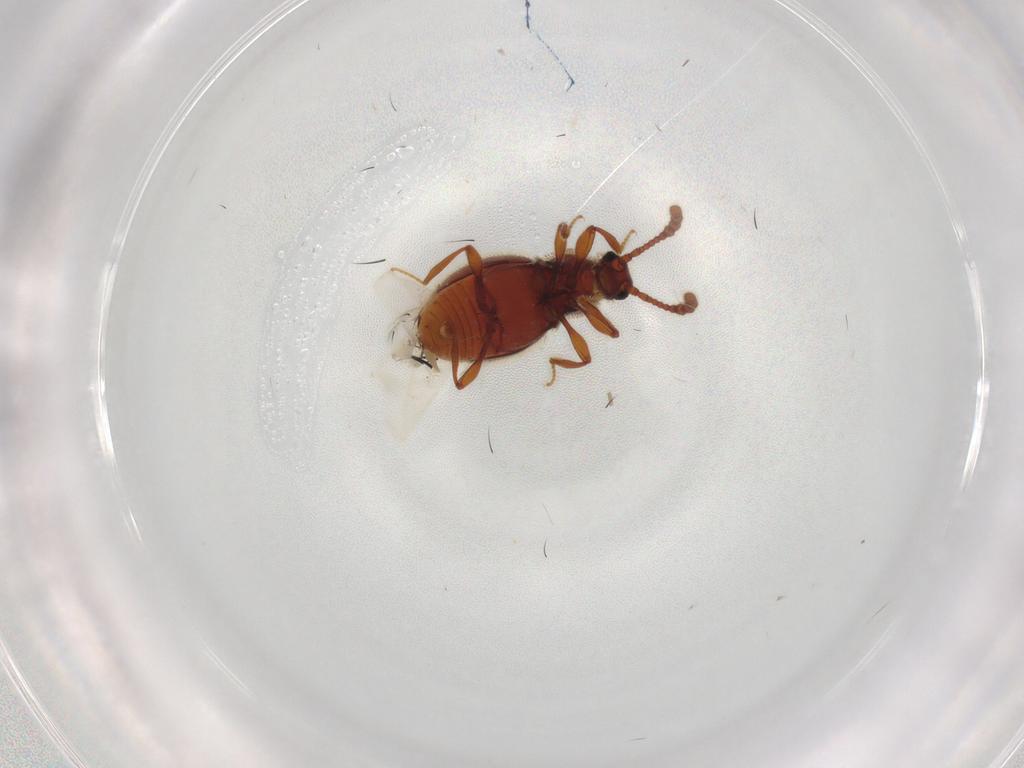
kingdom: Animalia
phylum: Arthropoda
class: Insecta
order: Coleoptera
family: Staphylinidae
